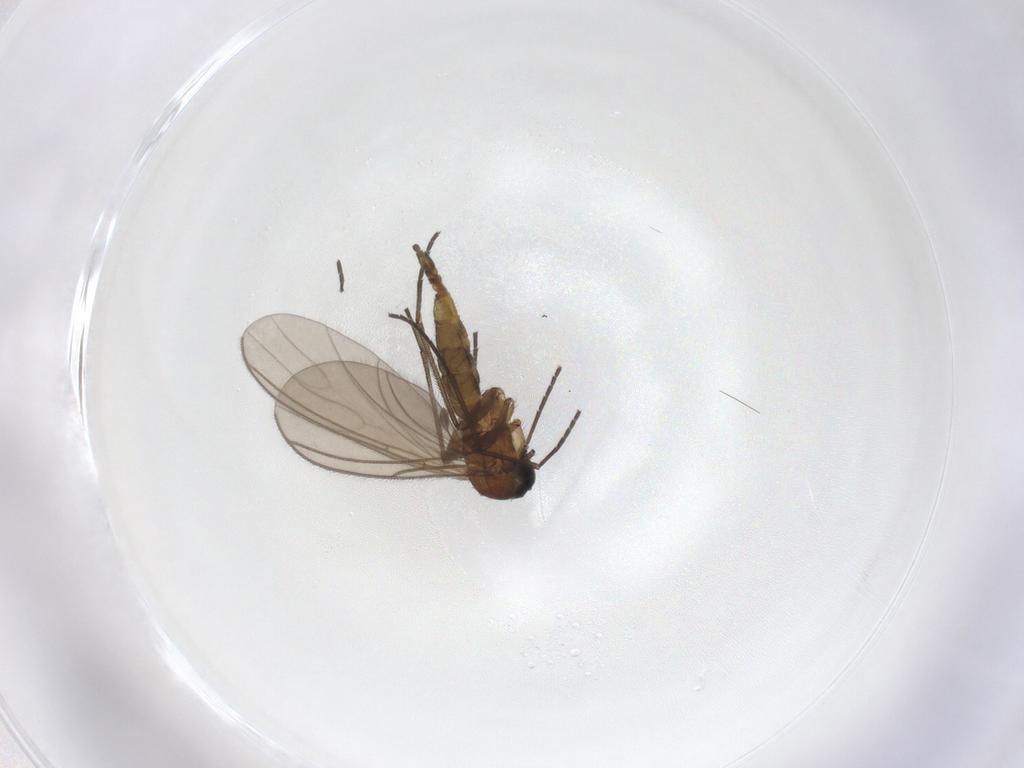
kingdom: Animalia
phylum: Arthropoda
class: Insecta
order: Diptera
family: Sciaridae
